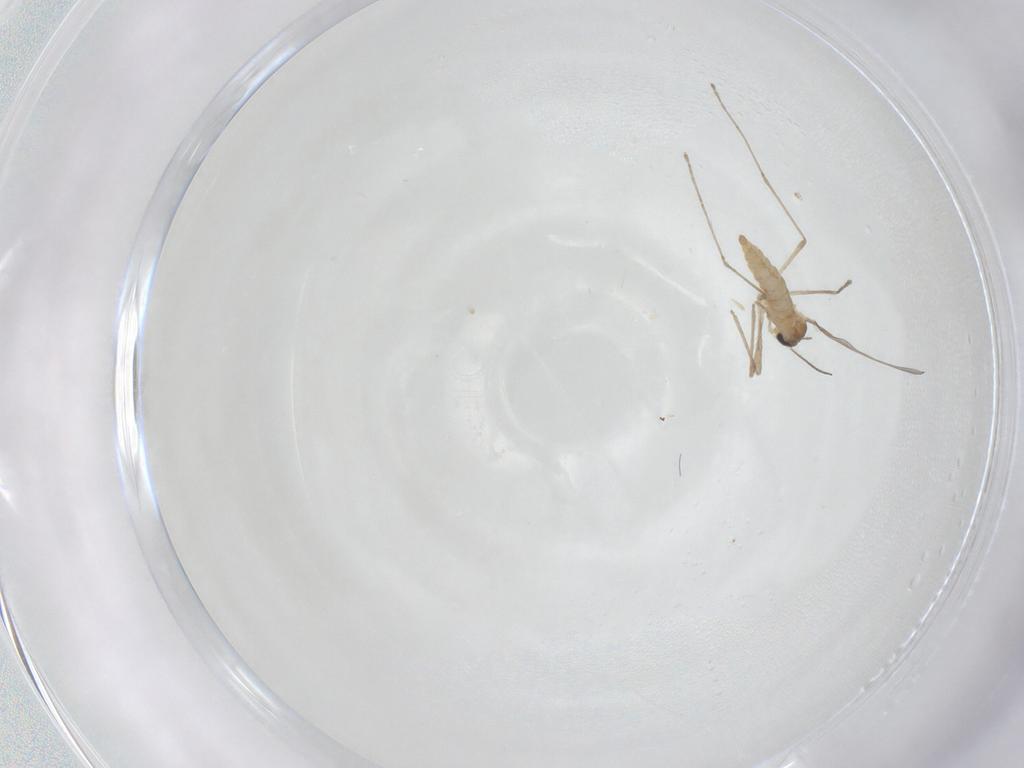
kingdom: Animalia
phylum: Arthropoda
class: Insecta
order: Diptera
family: Cecidomyiidae
